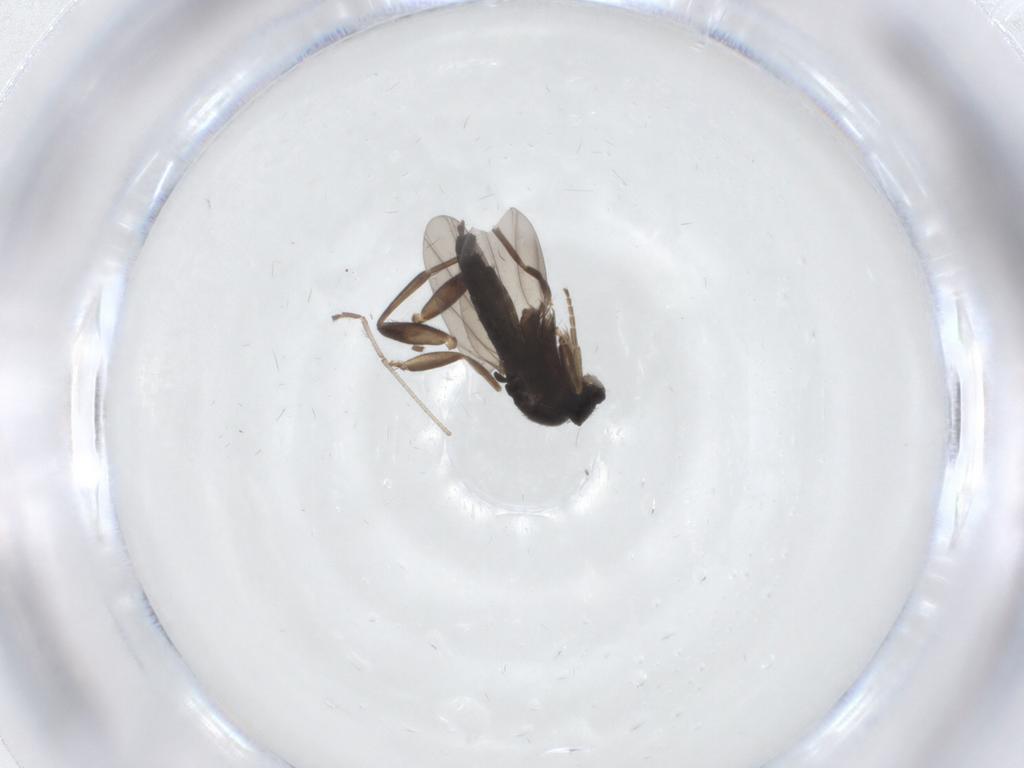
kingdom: Animalia
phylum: Arthropoda
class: Insecta
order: Diptera
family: Phoridae
